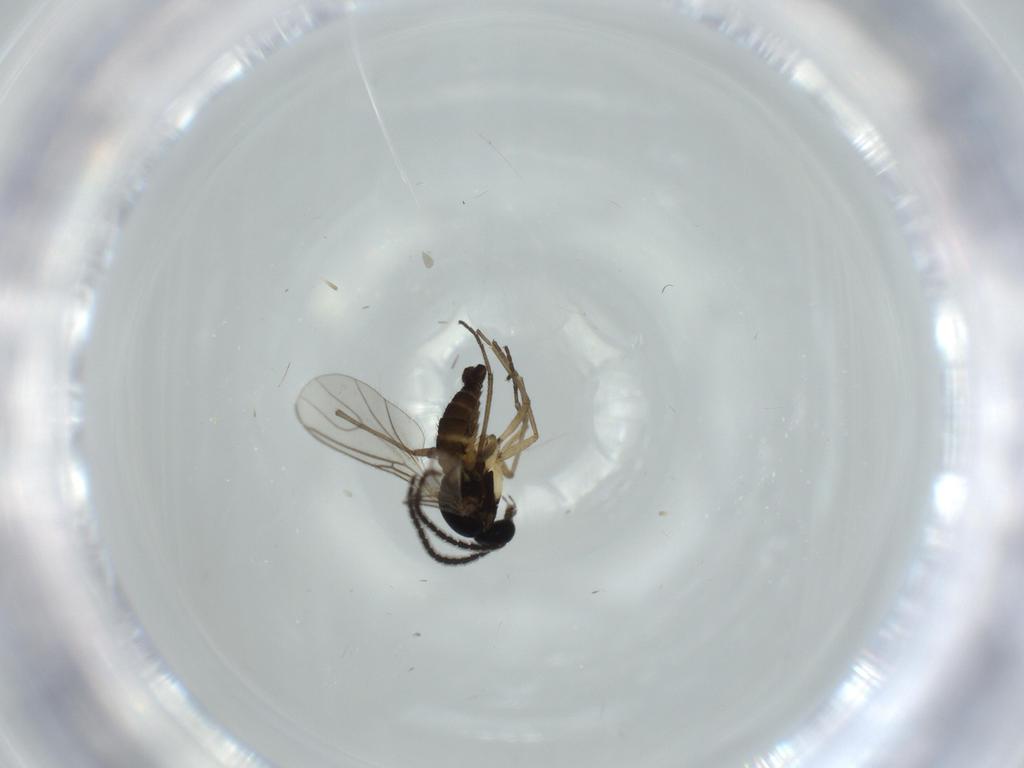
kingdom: Animalia
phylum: Arthropoda
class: Insecta
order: Diptera
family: Sciaridae
